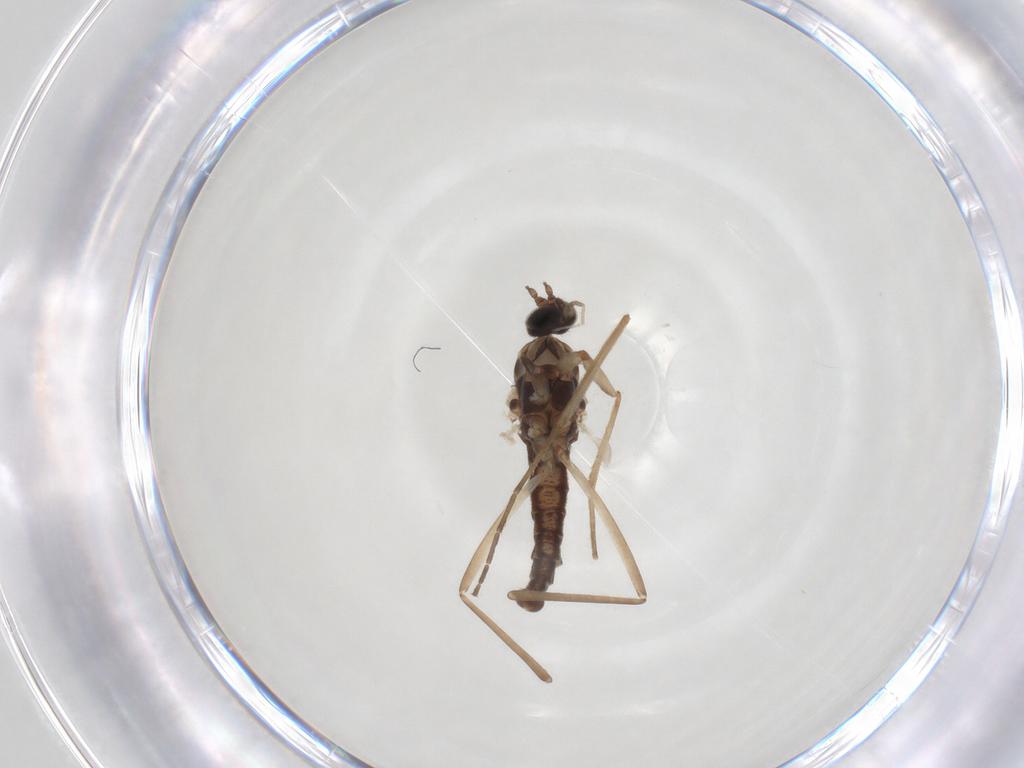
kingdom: Animalia
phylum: Arthropoda
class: Insecta
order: Diptera
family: Cecidomyiidae
